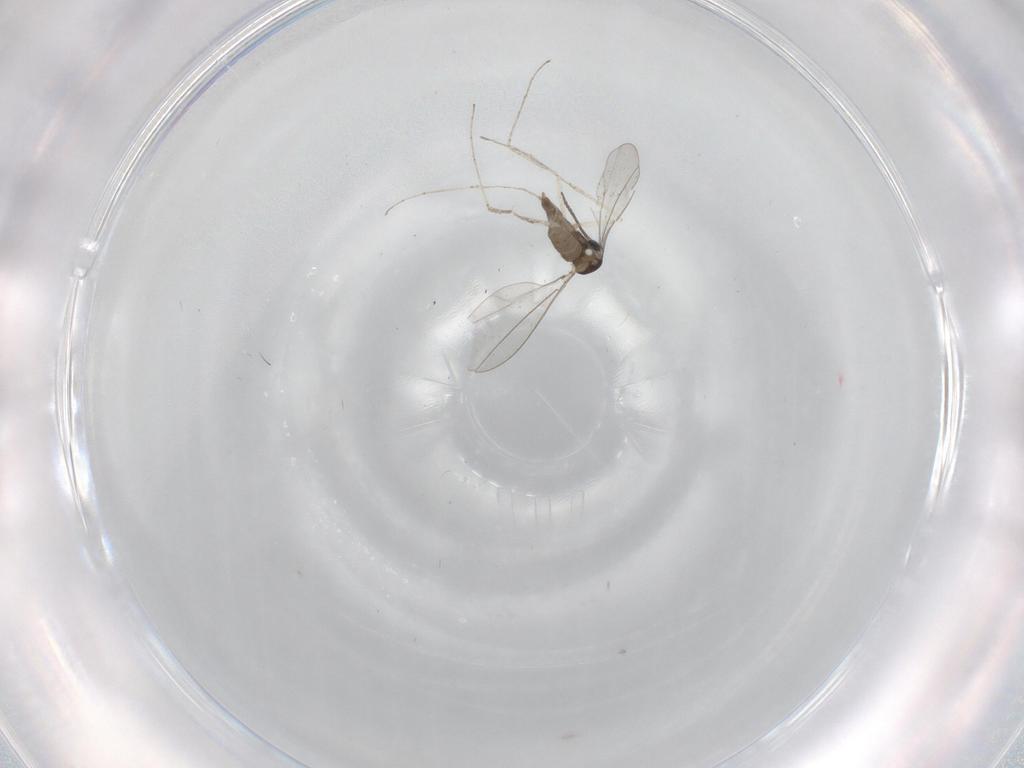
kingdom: Animalia
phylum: Arthropoda
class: Insecta
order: Diptera
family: Cecidomyiidae
